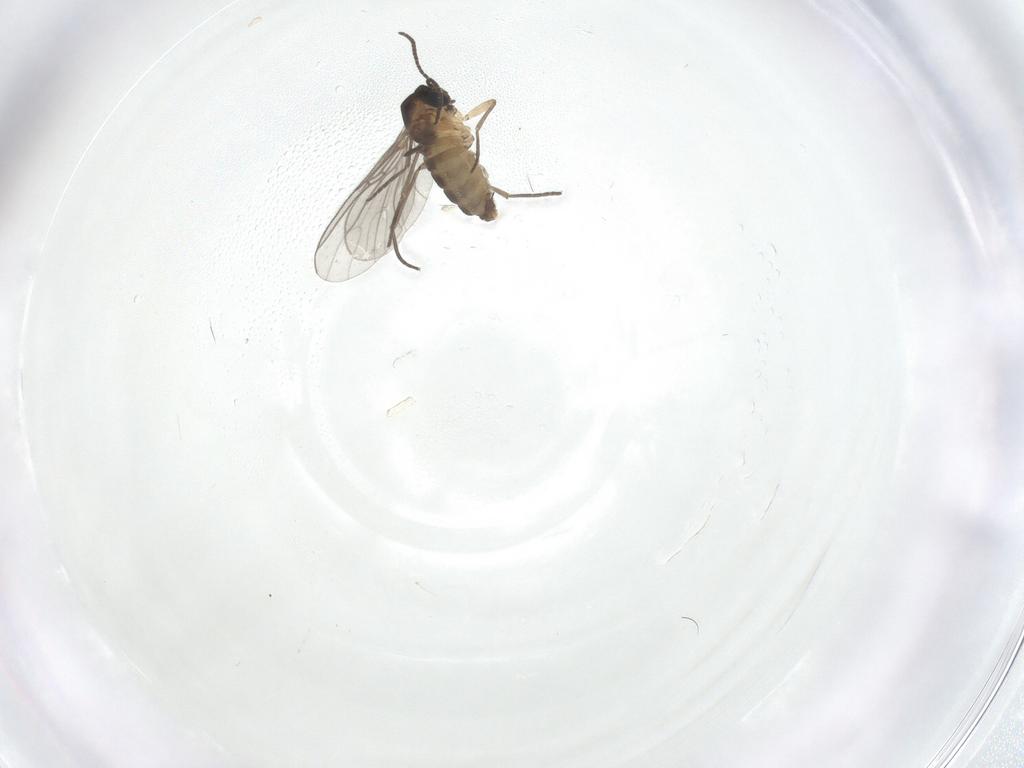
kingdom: Animalia
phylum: Arthropoda
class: Insecta
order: Diptera
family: Sciaridae
